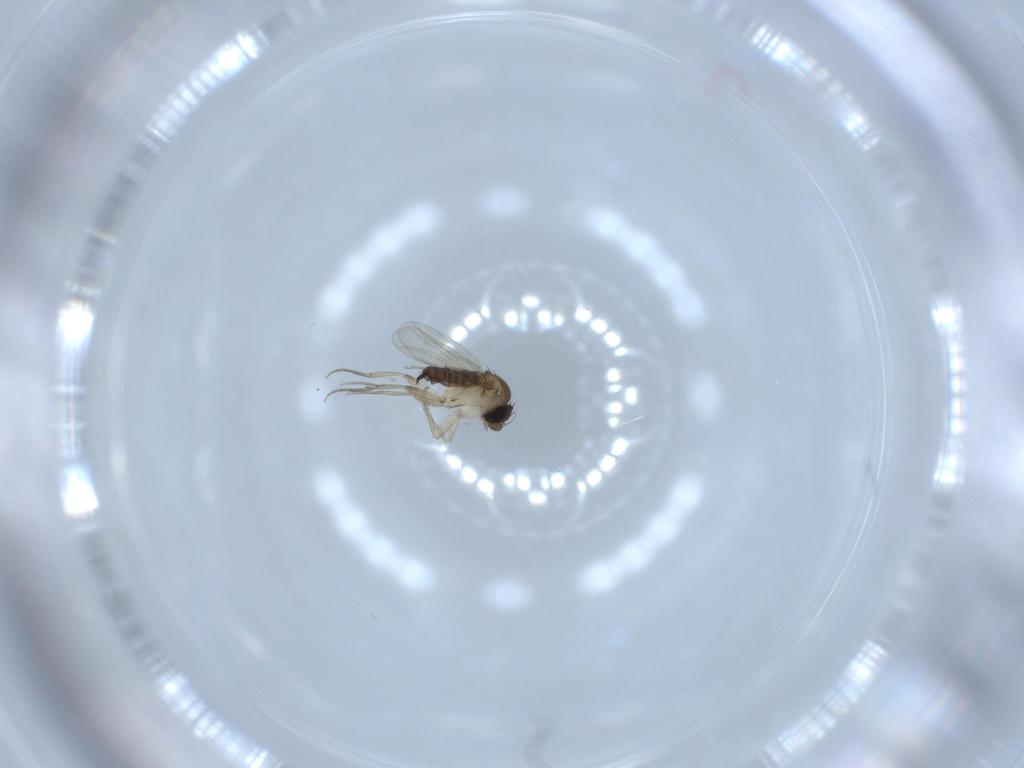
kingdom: Animalia
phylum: Arthropoda
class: Insecta
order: Diptera
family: Phoridae
